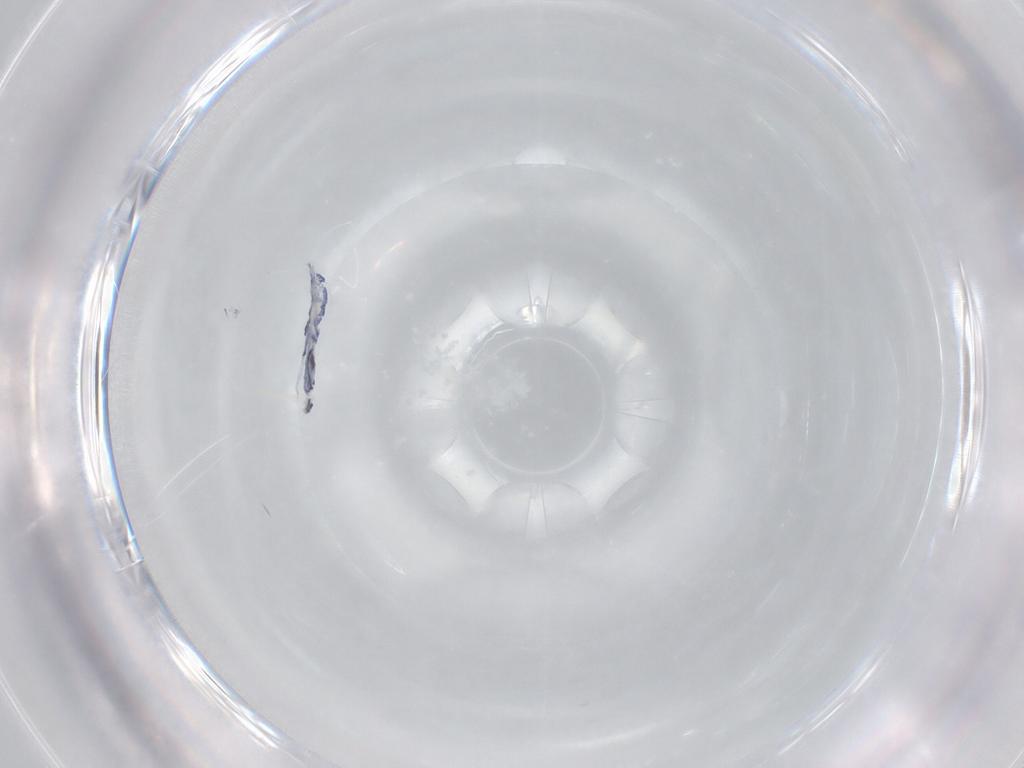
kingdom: Animalia
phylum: Arthropoda
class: Collembola
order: Entomobryomorpha
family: Entomobryidae
